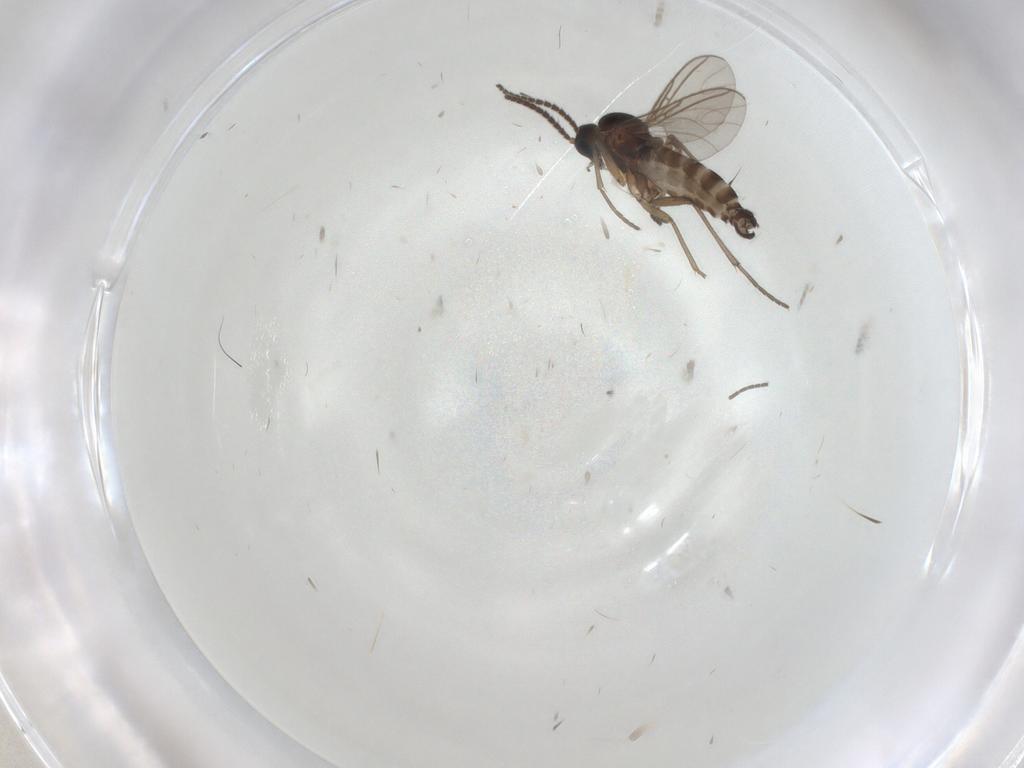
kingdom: Animalia
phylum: Arthropoda
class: Insecta
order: Diptera
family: Sciaridae
